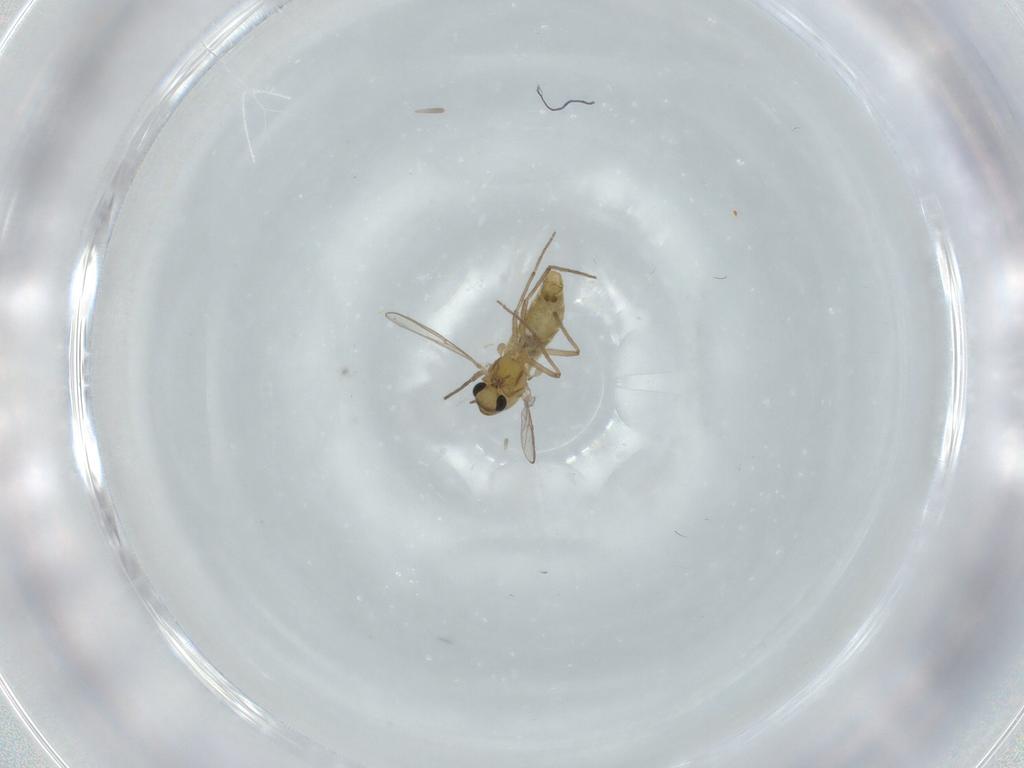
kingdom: Animalia
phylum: Arthropoda
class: Insecta
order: Diptera
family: Chironomidae
